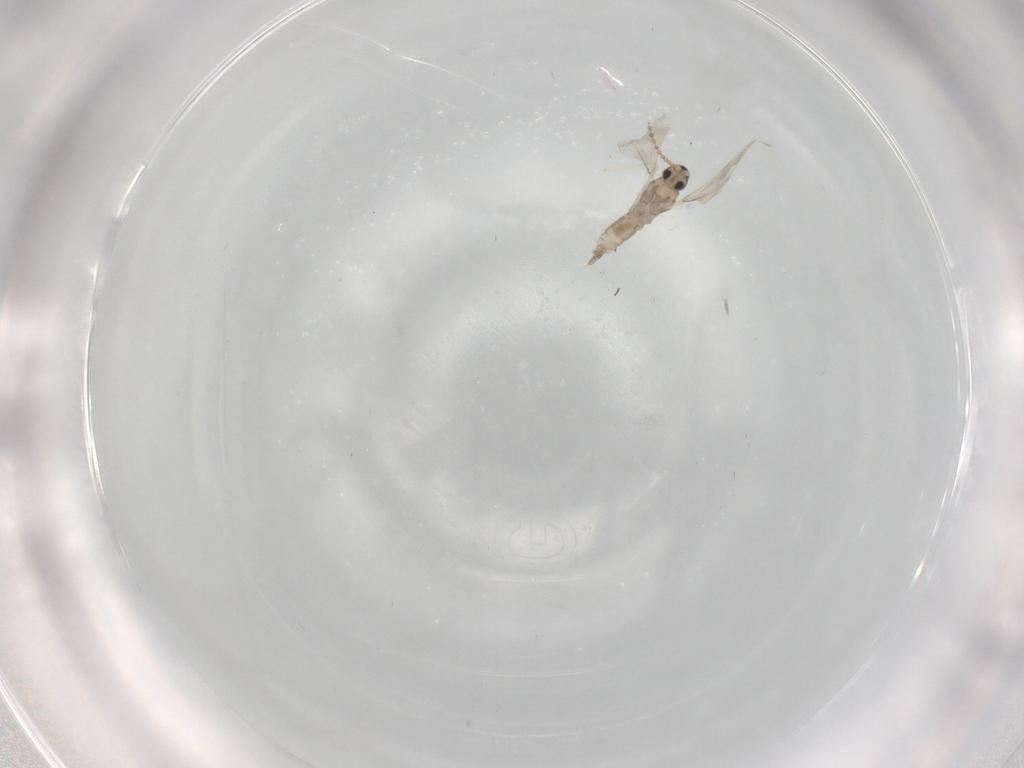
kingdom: Animalia
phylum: Arthropoda
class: Insecta
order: Diptera
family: Cecidomyiidae
